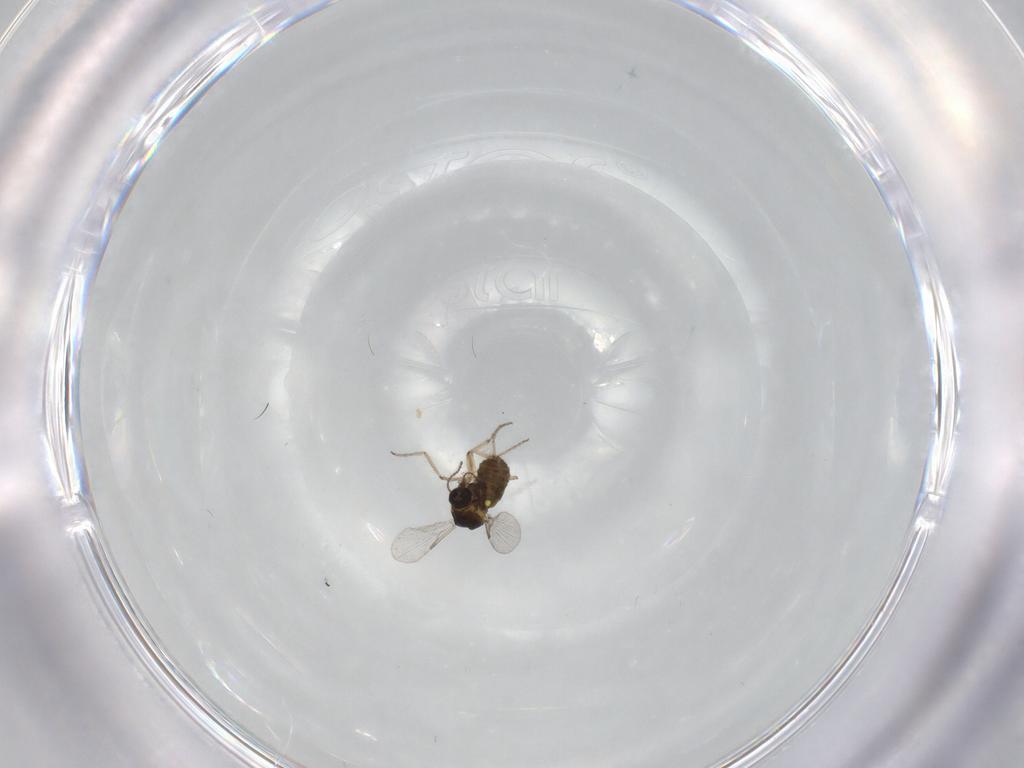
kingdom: Animalia
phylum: Arthropoda
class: Insecta
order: Diptera
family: Ceratopogonidae
